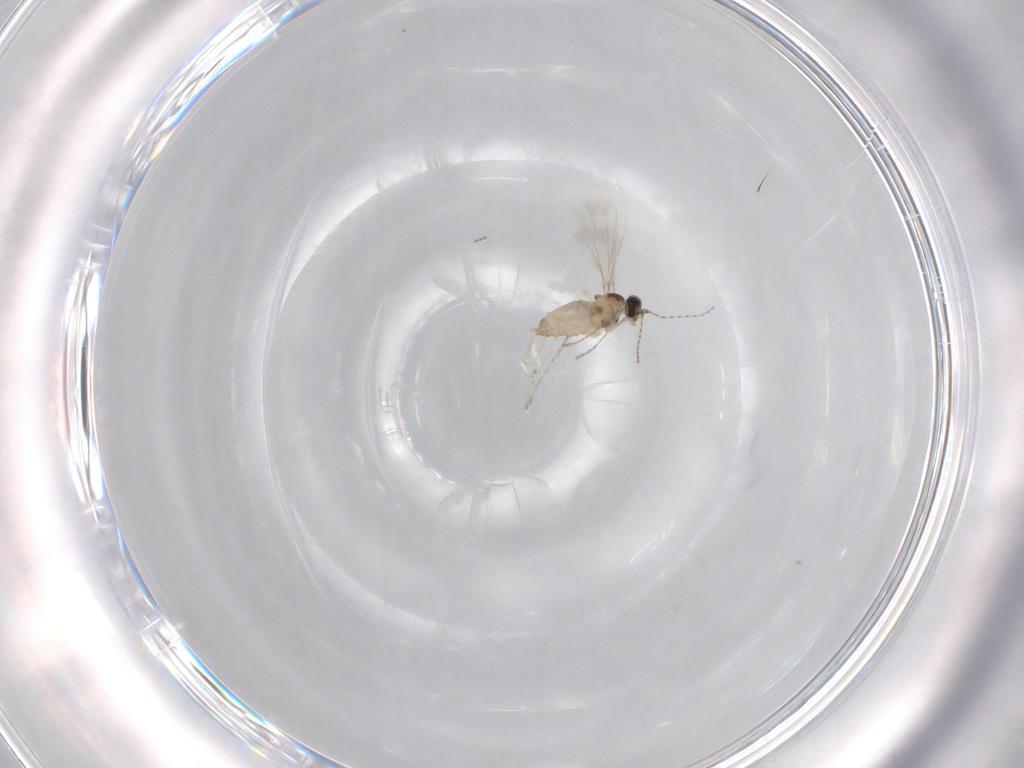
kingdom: Animalia
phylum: Arthropoda
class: Insecta
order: Diptera
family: Cecidomyiidae
